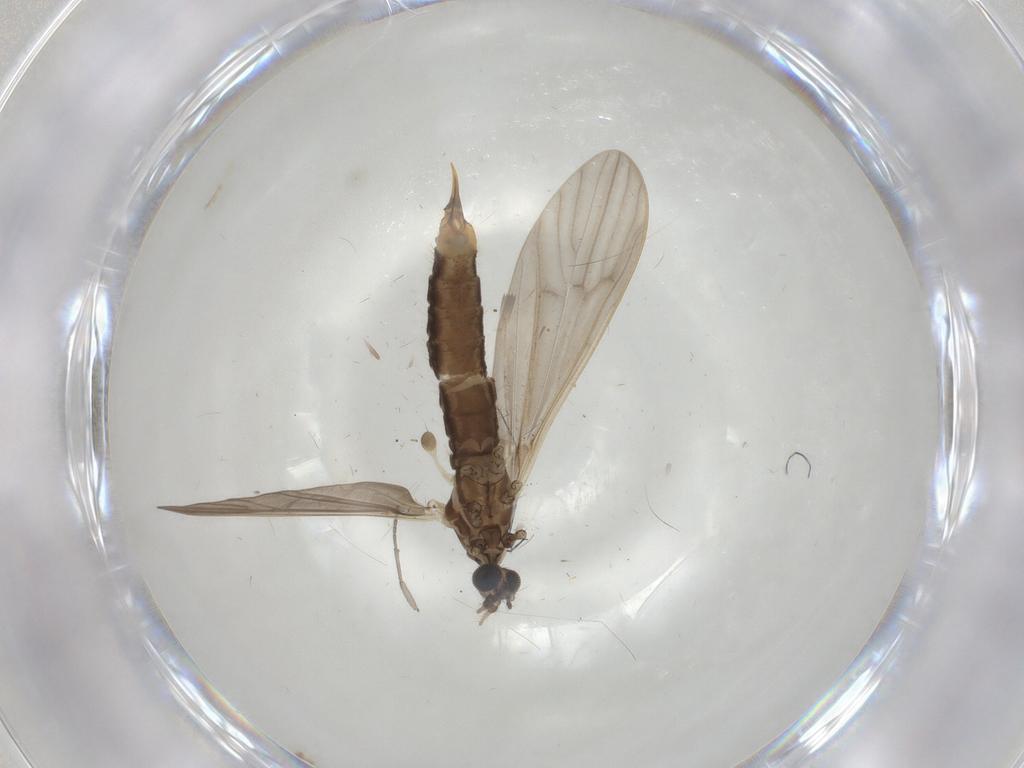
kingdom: Animalia
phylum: Arthropoda
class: Insecta
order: Diptera
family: Limoniidae
